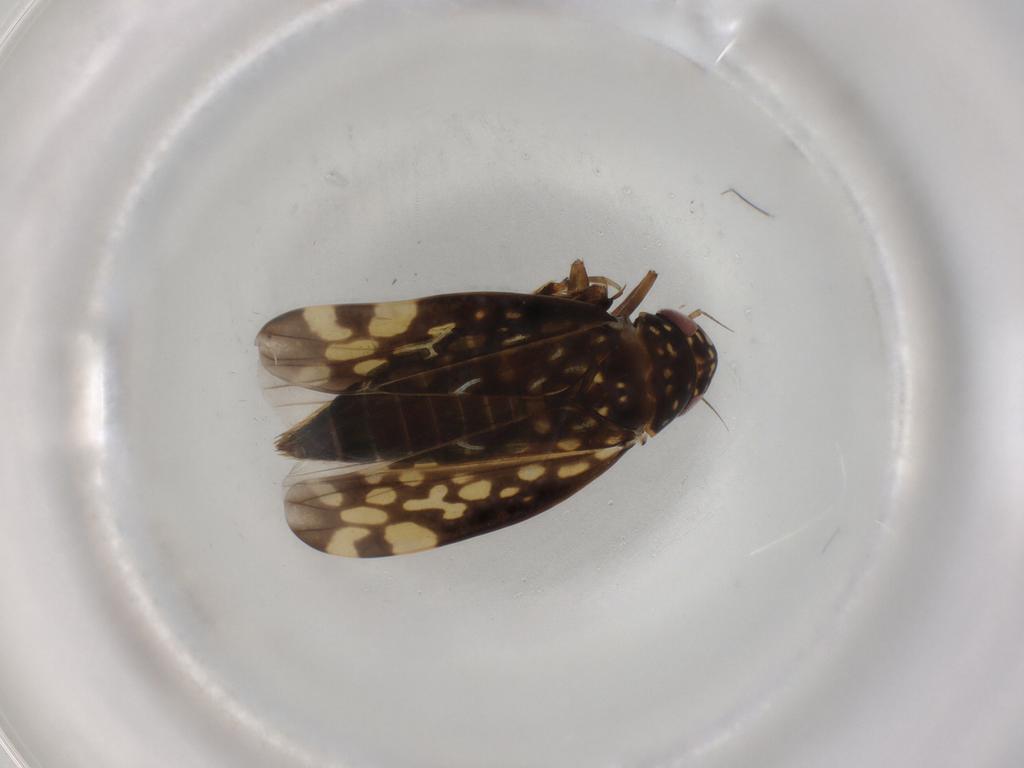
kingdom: Animalia
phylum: Arthropoda
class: Insecta
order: Hemiptera
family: Cicadellidae
